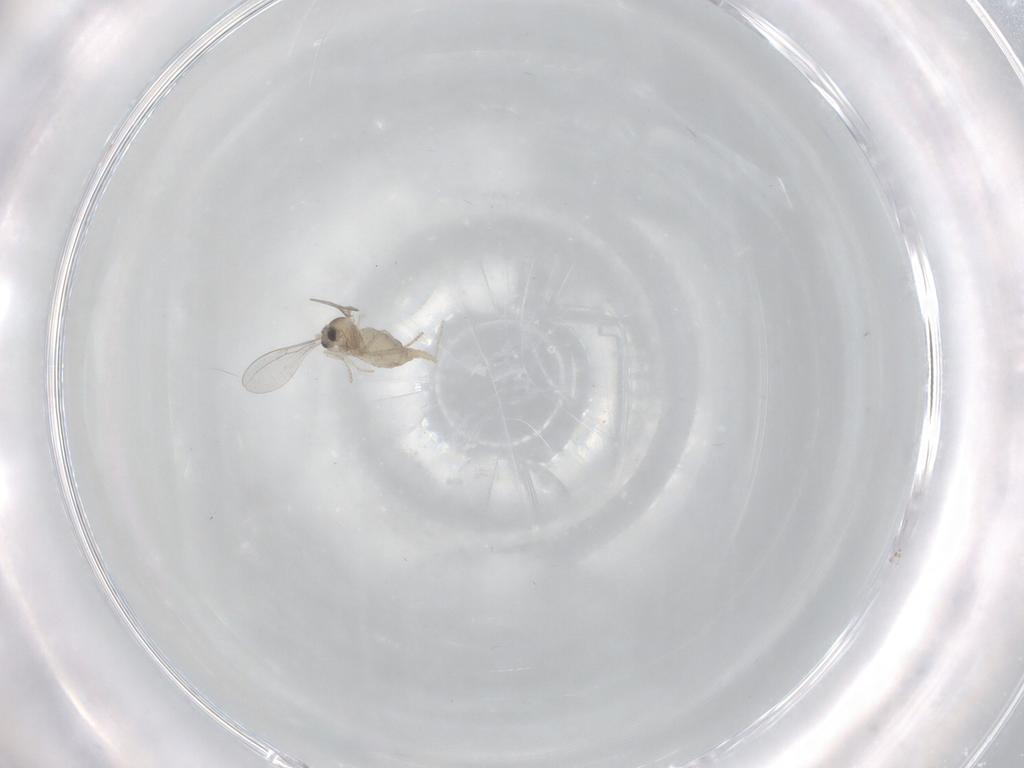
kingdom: Animalia
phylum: Arthropoda
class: Insecta
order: Diptera
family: Cecidomyiidae
